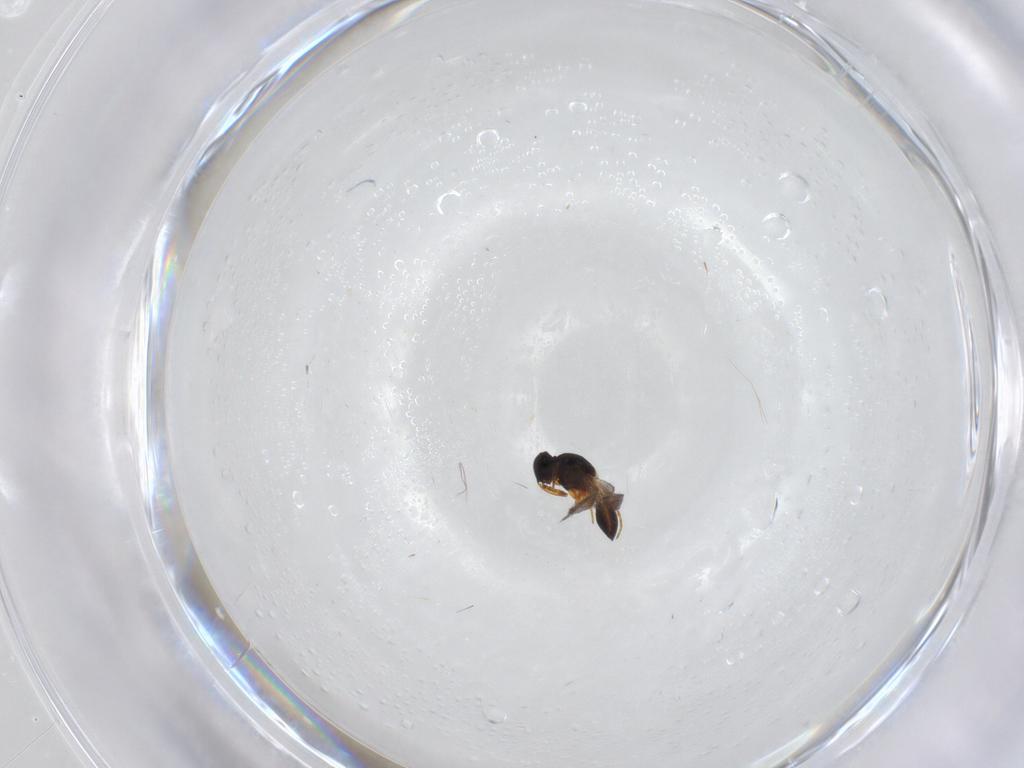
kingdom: Animalia
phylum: Arthropoda
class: Insecta
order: Hymenoptera
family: Platygastridae
